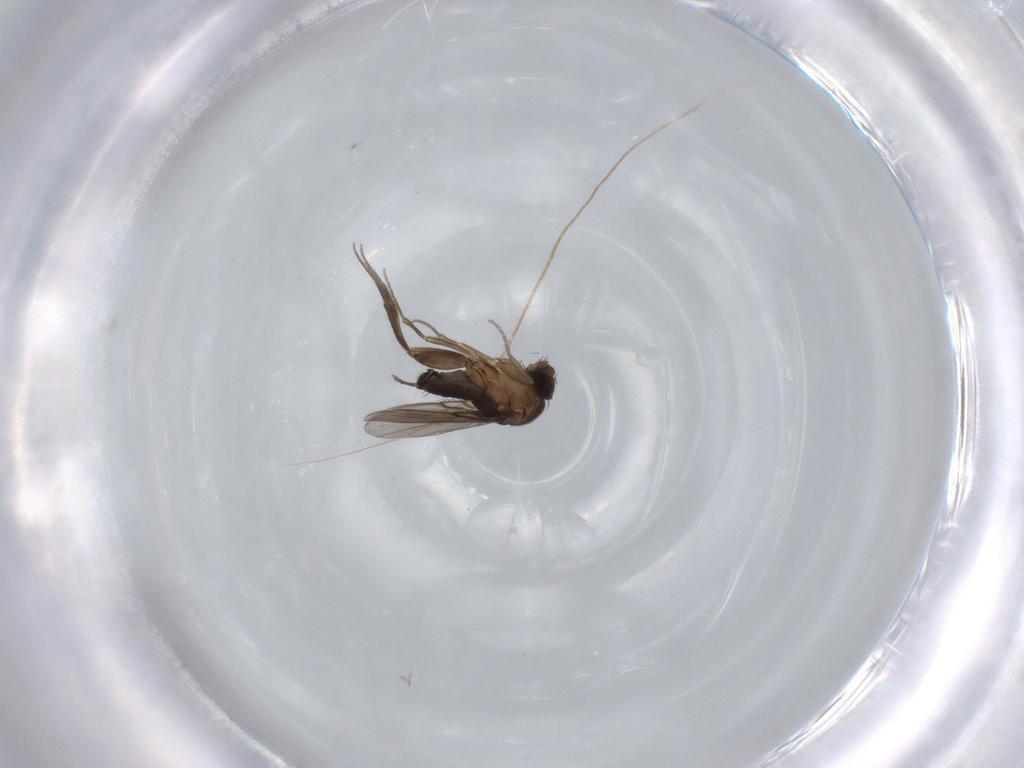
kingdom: Animalia
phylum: Arthropoda
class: Insecta
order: Diptera
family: Phoridae
